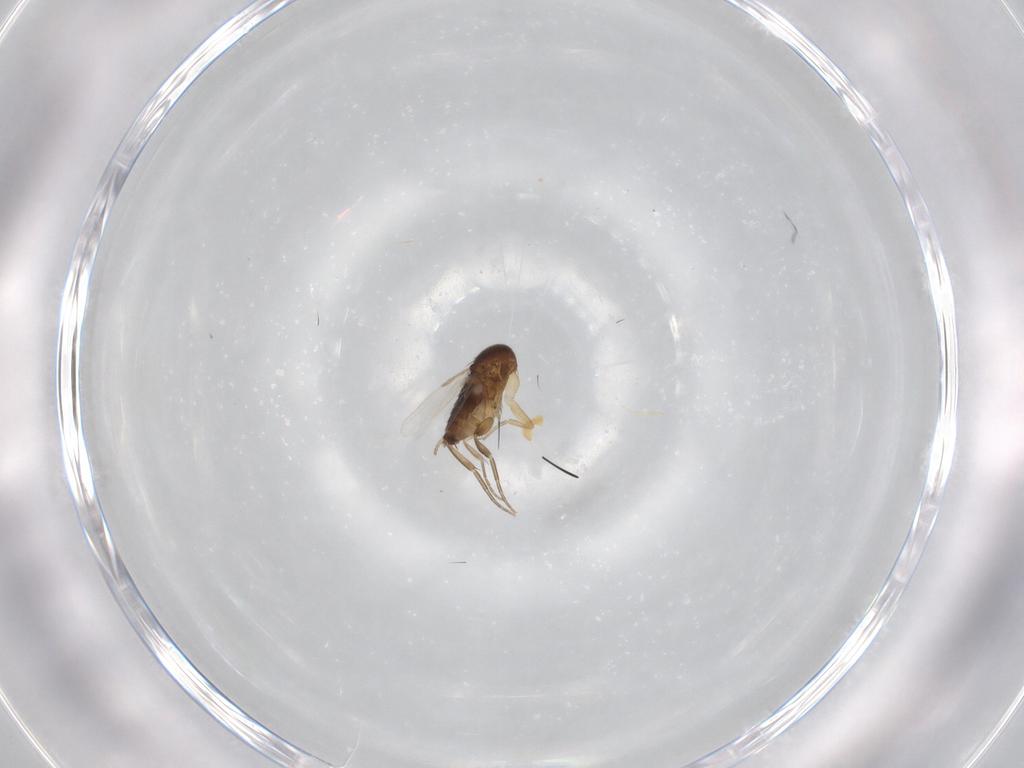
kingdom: Animalia
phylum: Arthropoda
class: Insecta
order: Diptera
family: Phoridae
